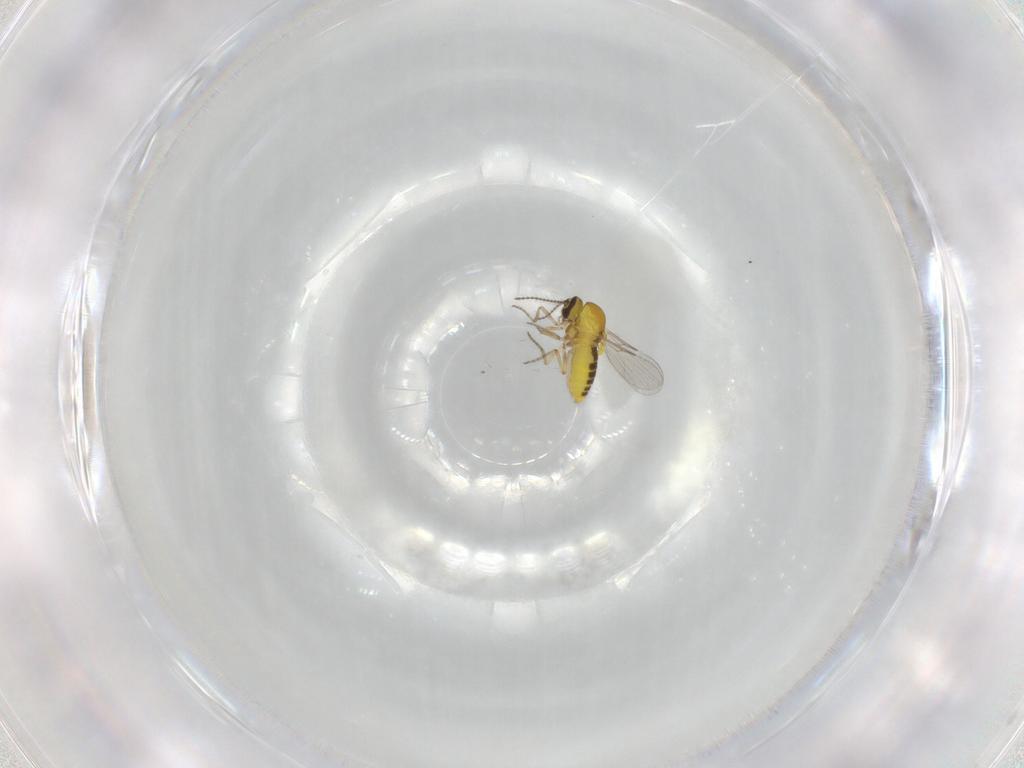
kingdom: Animalia
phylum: Arthropoda
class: Insecta
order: Diptera
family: Ceratopogonidae
